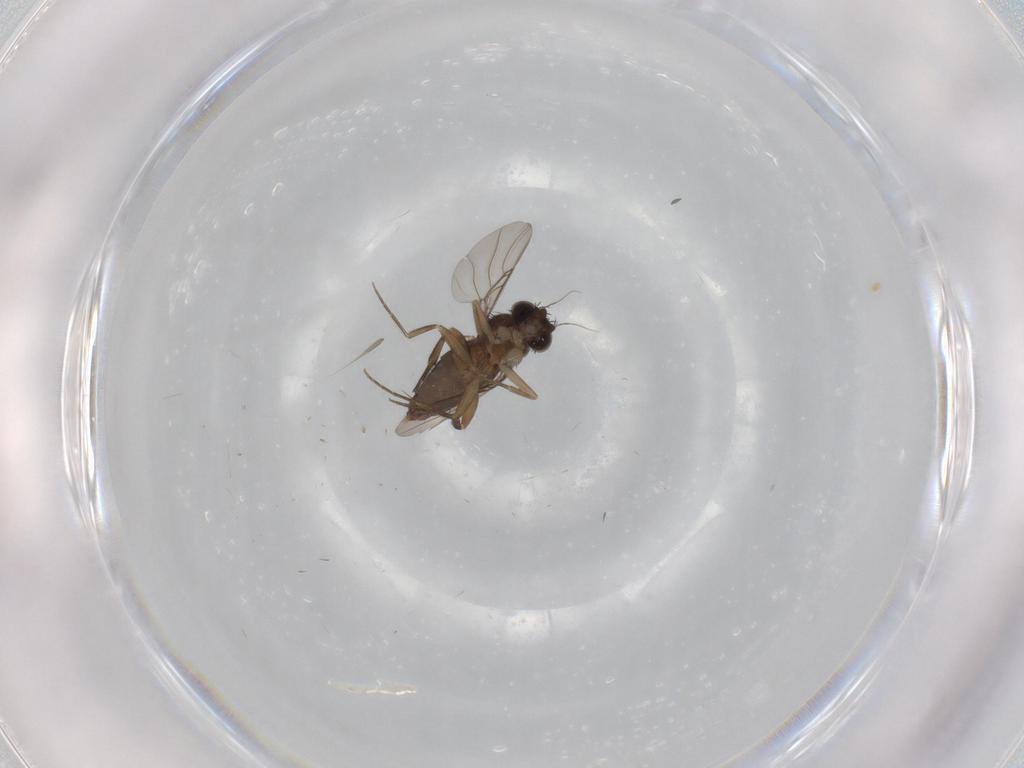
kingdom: Animalia
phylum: Arthropoda
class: Insecta
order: Diptera
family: Phoridae
